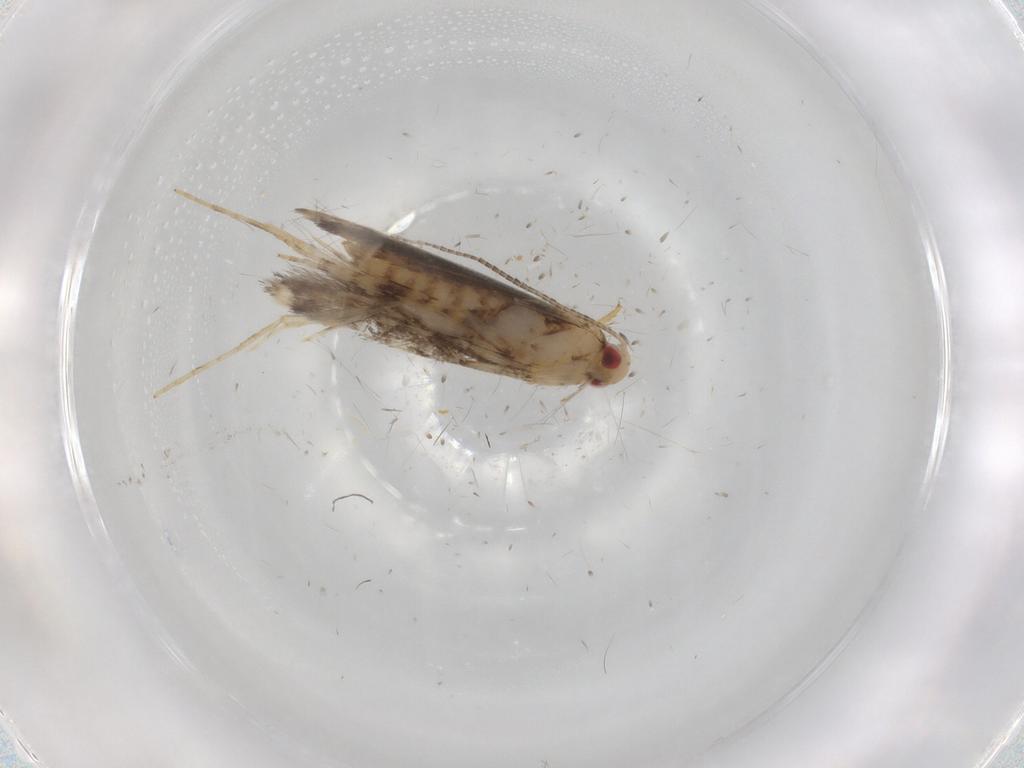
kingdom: Animalia
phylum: Arthropoda
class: Insecta
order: Lepidoptera
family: Gracillariidae
